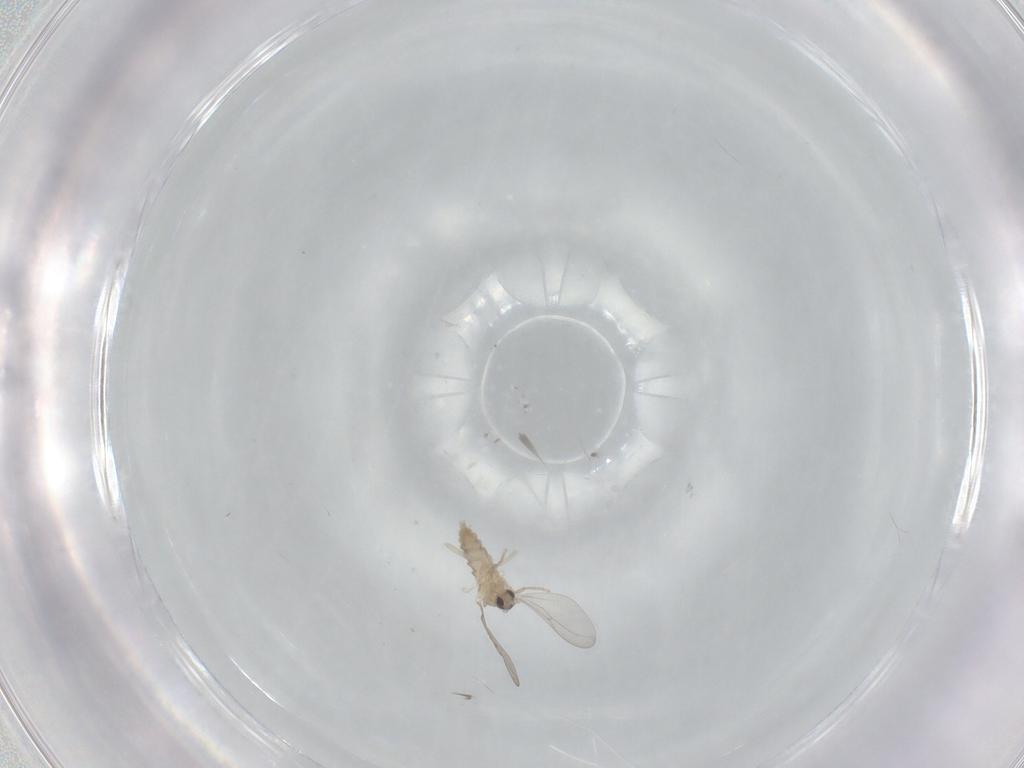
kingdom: Animalia
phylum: Arthropoda
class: Insecta
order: Diptera
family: Cecidomyiidae
